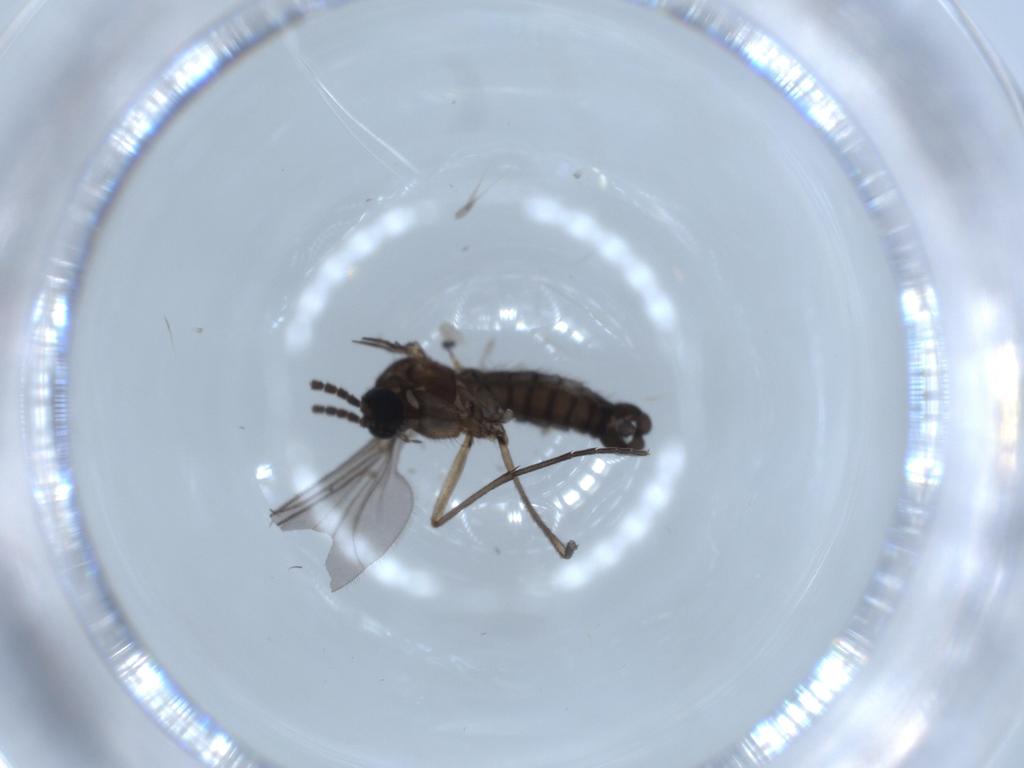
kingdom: Animalia
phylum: Arthropoda
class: Insecta
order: Diptera
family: Sciaridae
